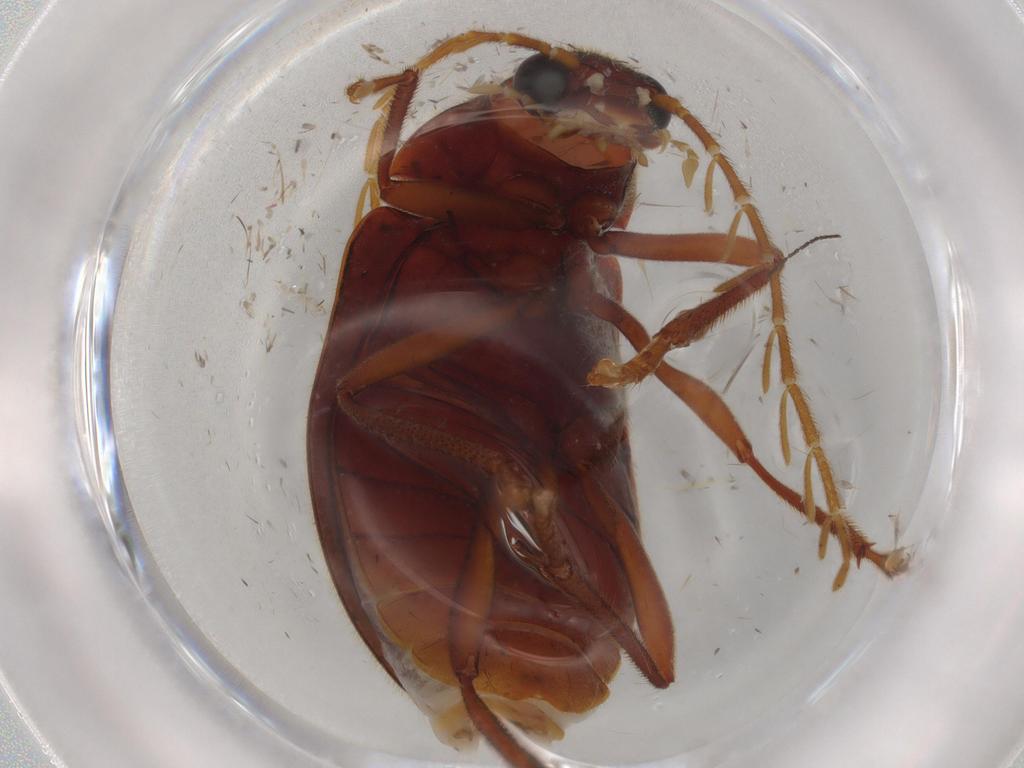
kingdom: Animalia
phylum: Arthropoda
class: Insecta
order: Coleoptera
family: Ptilodactylidae
